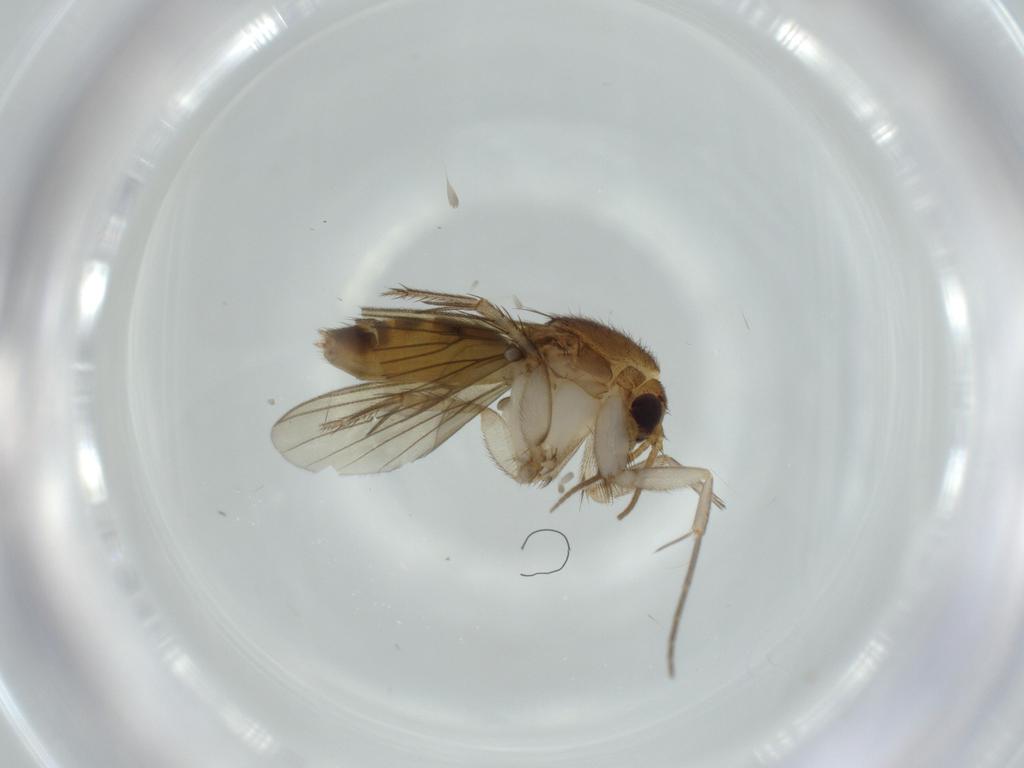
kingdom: Animalia
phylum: Arthropoda
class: Insecta
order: Diptera
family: Mycetophilidae
